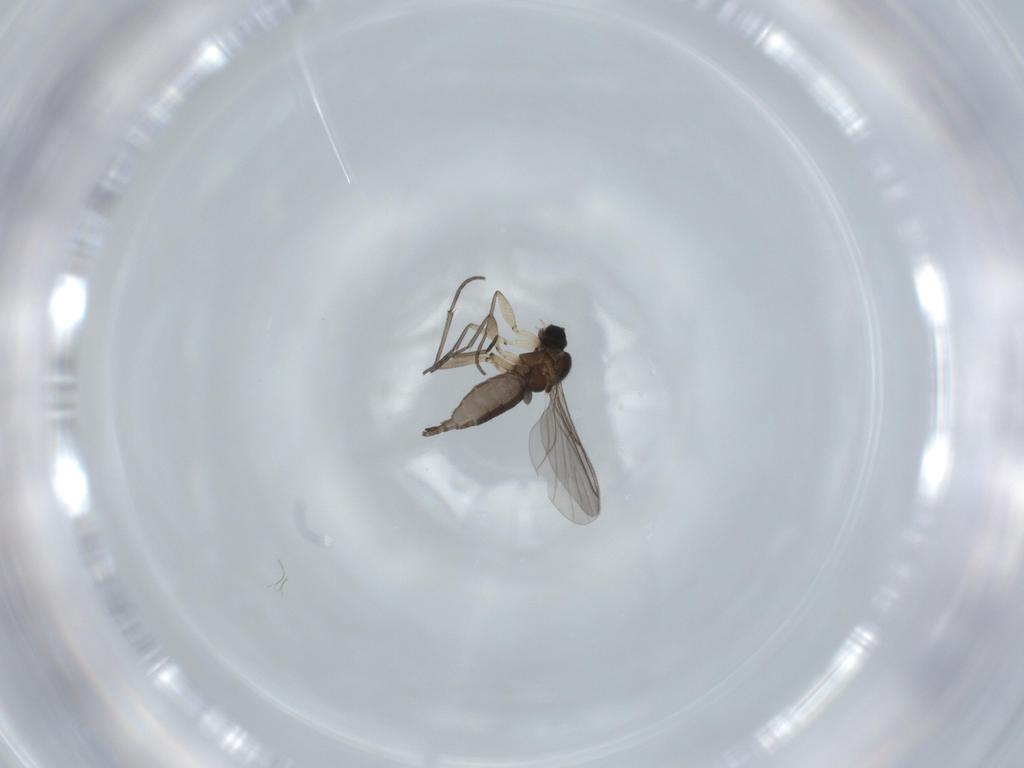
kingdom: Animalia
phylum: Arthropoda
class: Insecta
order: Diptera
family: Sciaridae
